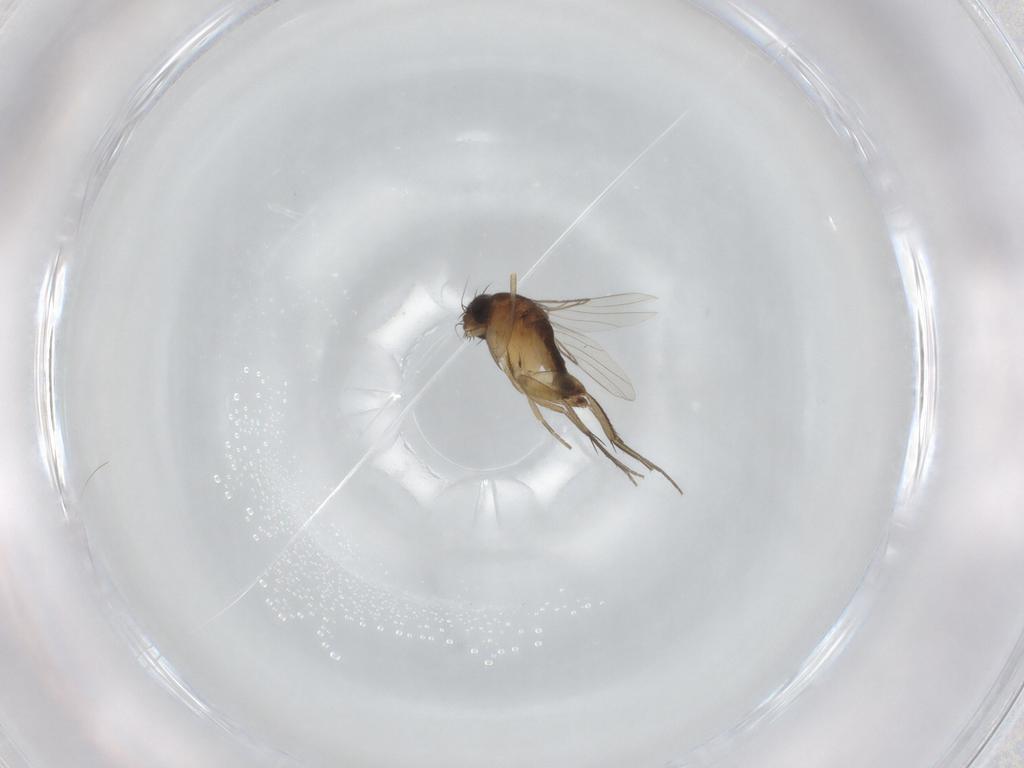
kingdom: Animalia
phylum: Arthropoda
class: Insecta
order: Diptera
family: Phoridae
